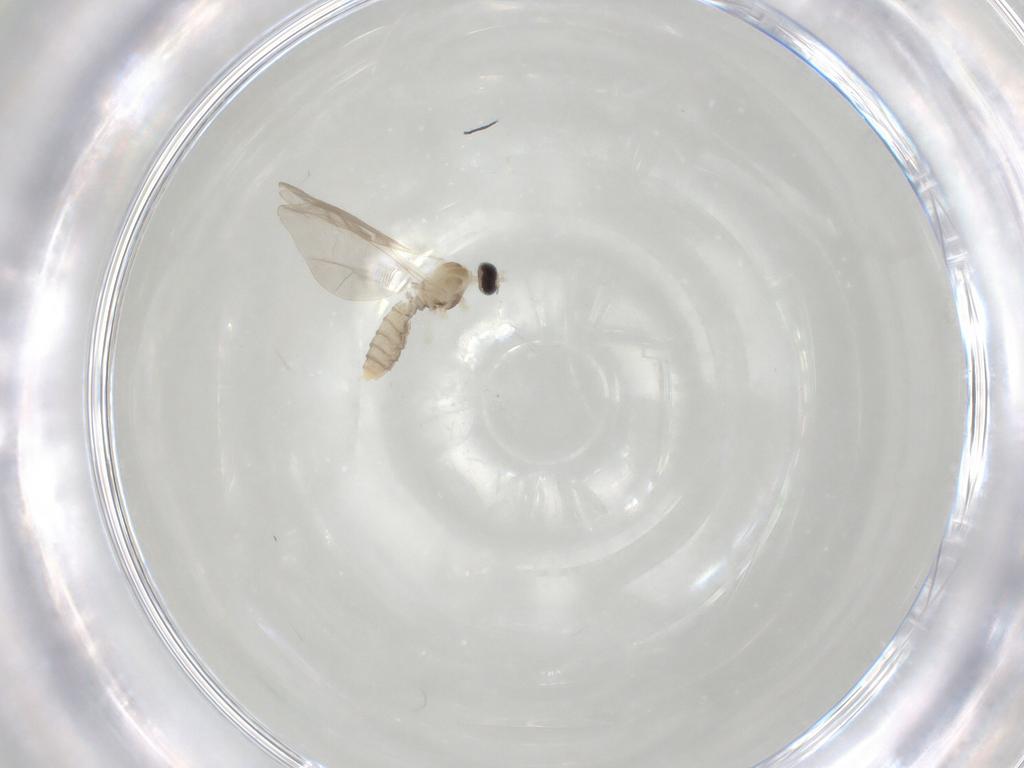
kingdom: Animalia
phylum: Arthropoda
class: Insecta
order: Diptera
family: Cecidomyiidae
